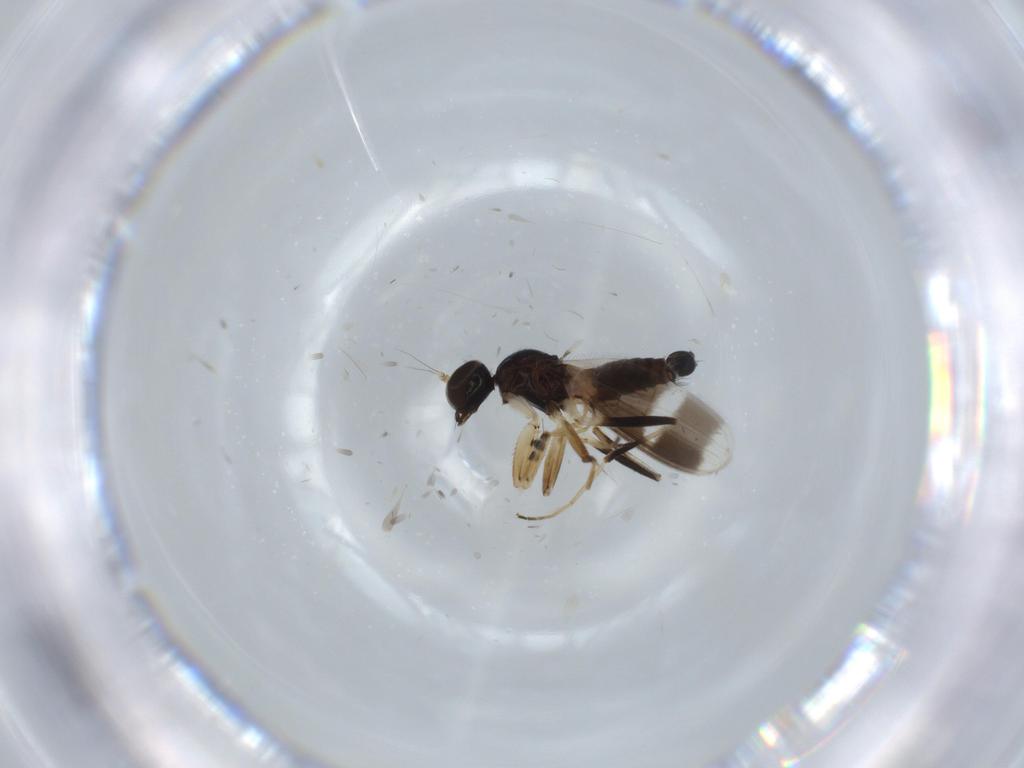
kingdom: Animalia
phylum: Arthropoda
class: Insecta
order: Diptera
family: Hybotidae
